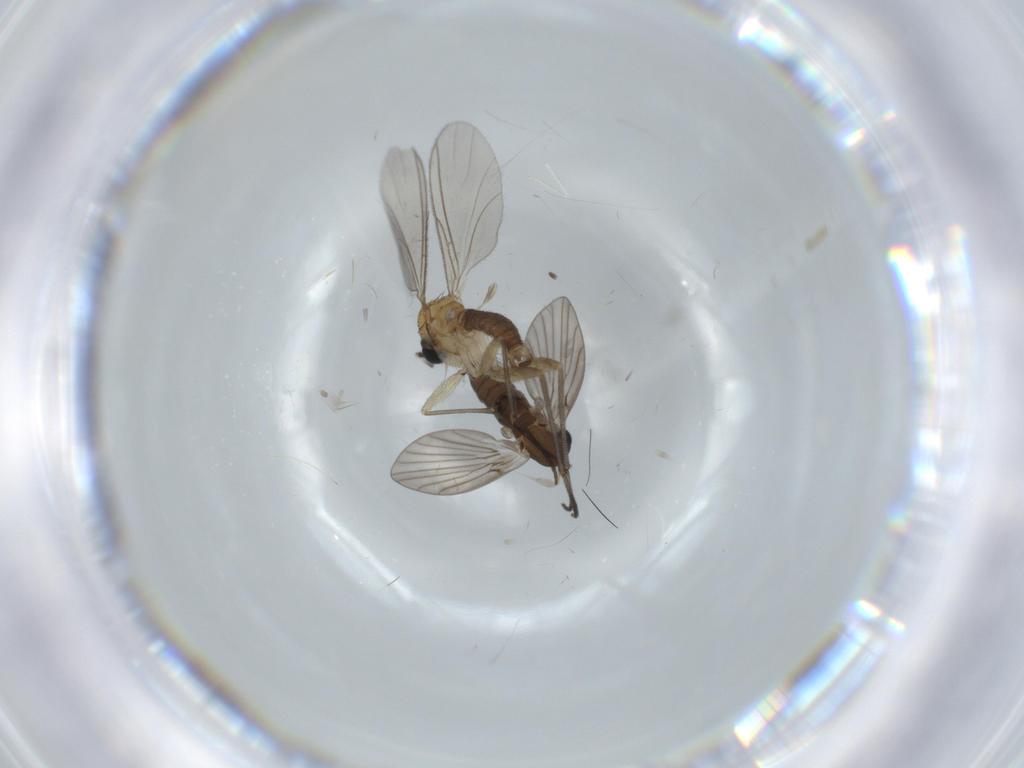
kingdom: Animalia
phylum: Arthropoda
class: Insecta
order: Diptera
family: Sciaridae
